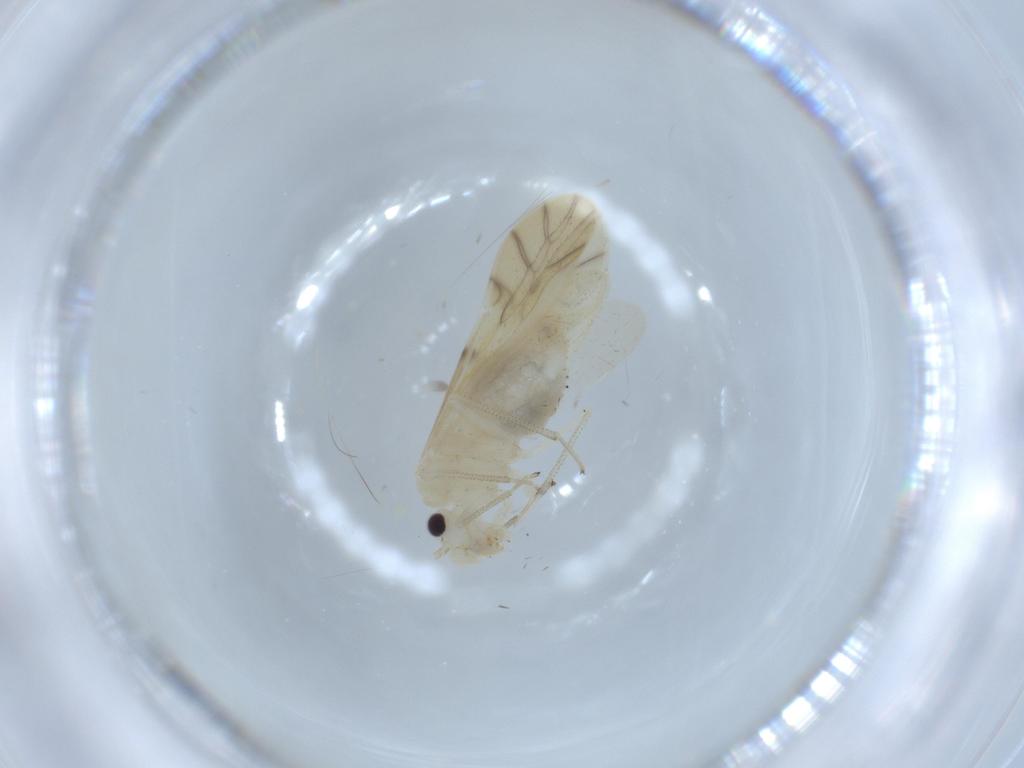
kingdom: Animalia
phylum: Arthropoda
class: Insecta
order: Psocodea
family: Caeciliusidae
